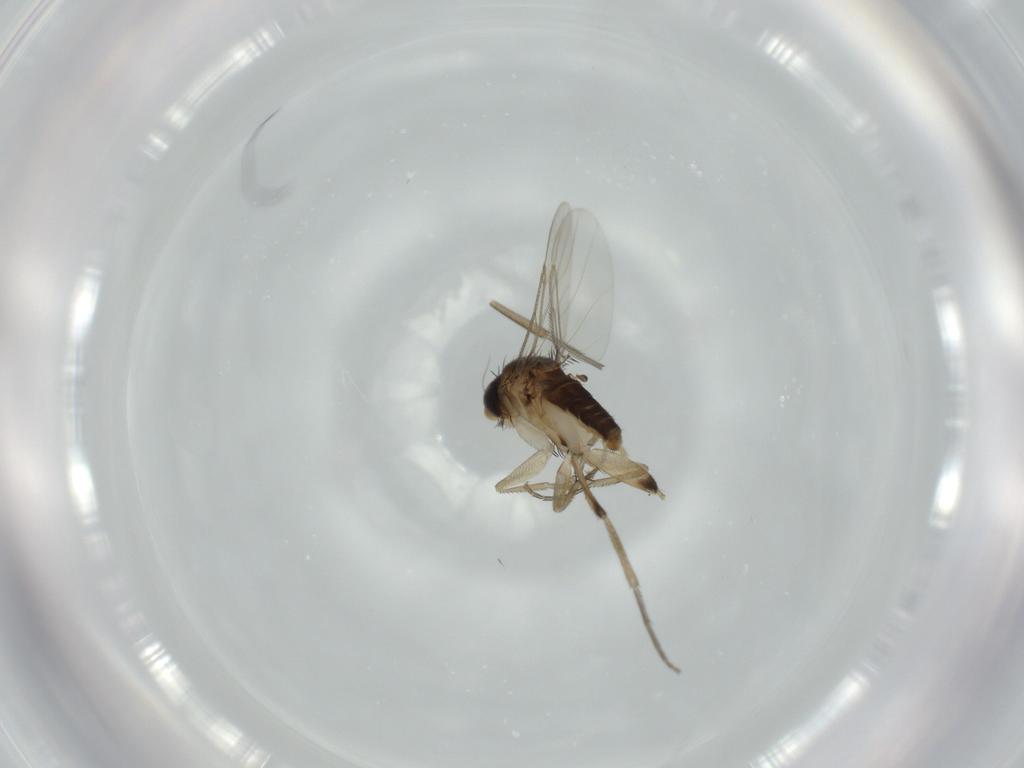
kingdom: Animalia
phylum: Arthropoda
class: Insecta
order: Diptera
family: Phoridae
